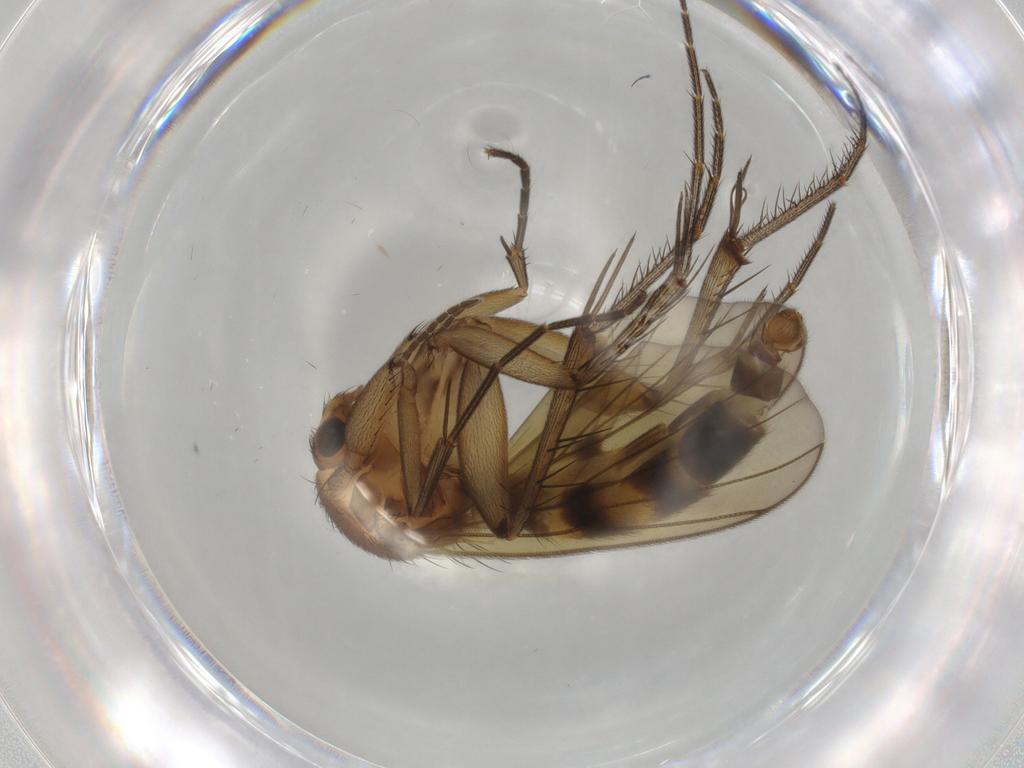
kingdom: Animalia
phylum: Arthropoda
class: Insecta
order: Diptera
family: Mycetophilidae
